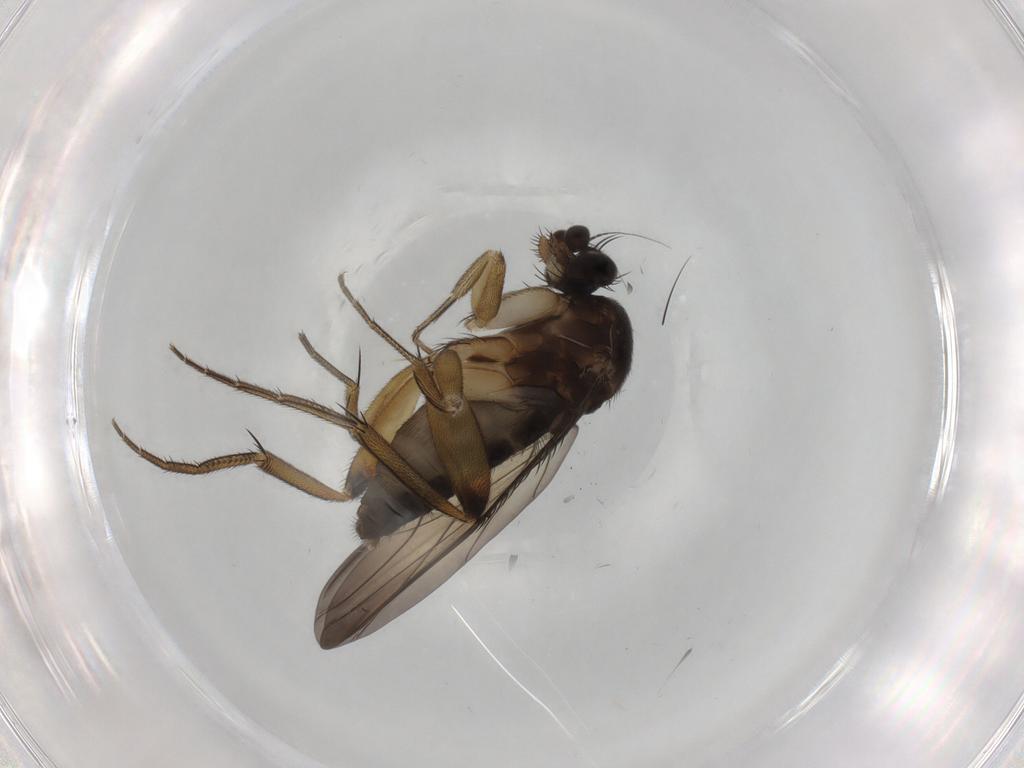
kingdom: Animalia
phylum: Arthropoda
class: Insecta
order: Diptera
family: Phoridae
